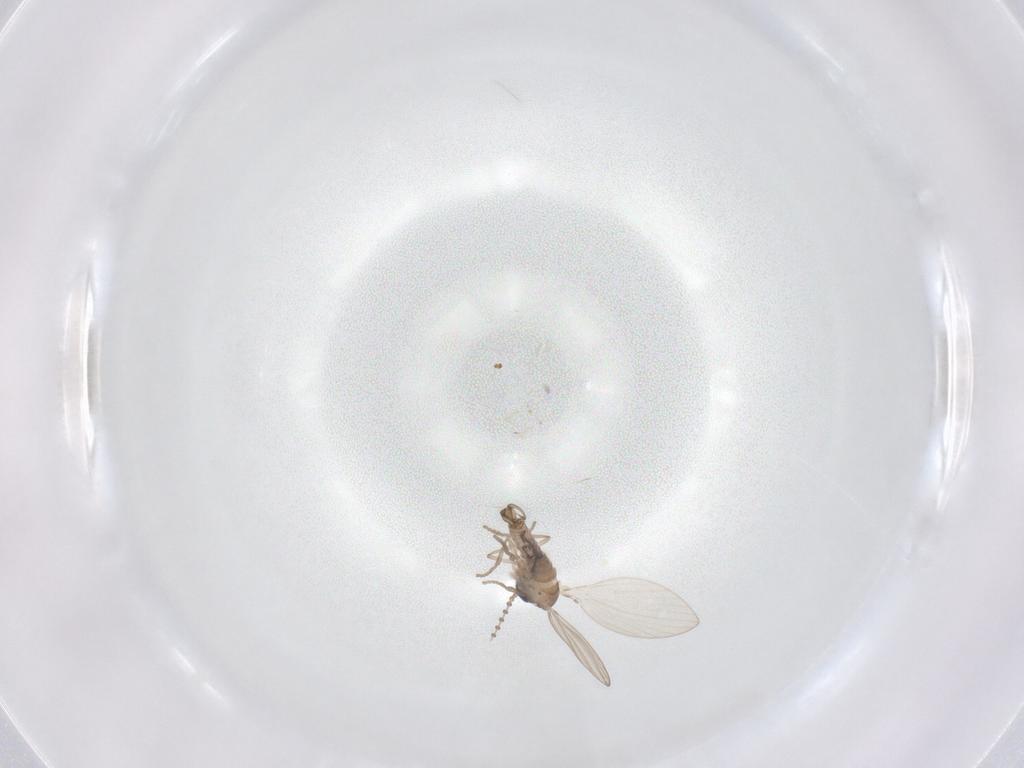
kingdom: Animalia
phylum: Arthropoda
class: Insecta
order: Diptera
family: Psychodidae
